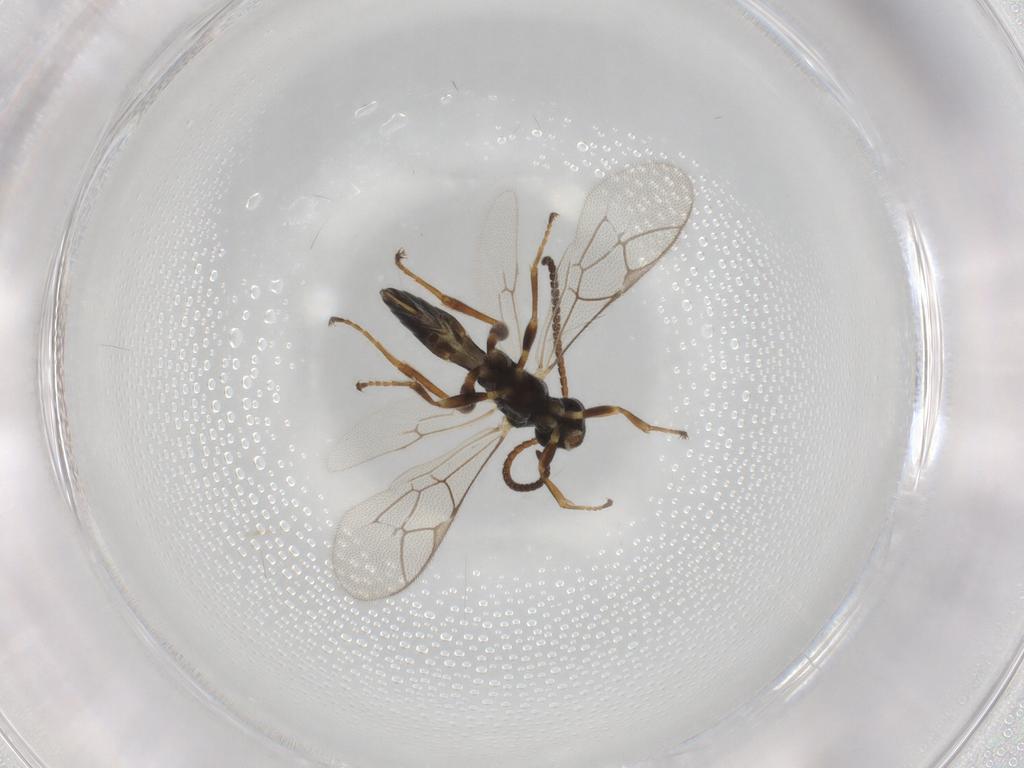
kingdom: Animalia
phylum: Arthropoda
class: Insecta
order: Hymenoptera
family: Ichneumonidae
